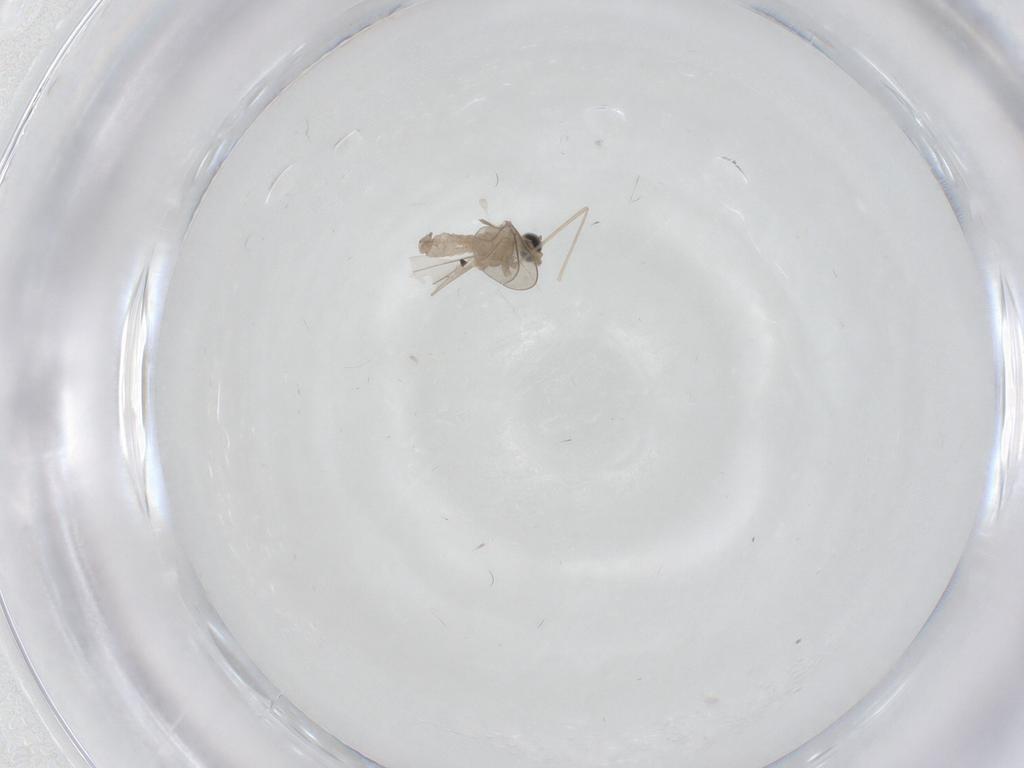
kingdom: Animalia
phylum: Arthropoda
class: Insecta
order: Diptera
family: Cecidomyiidae
